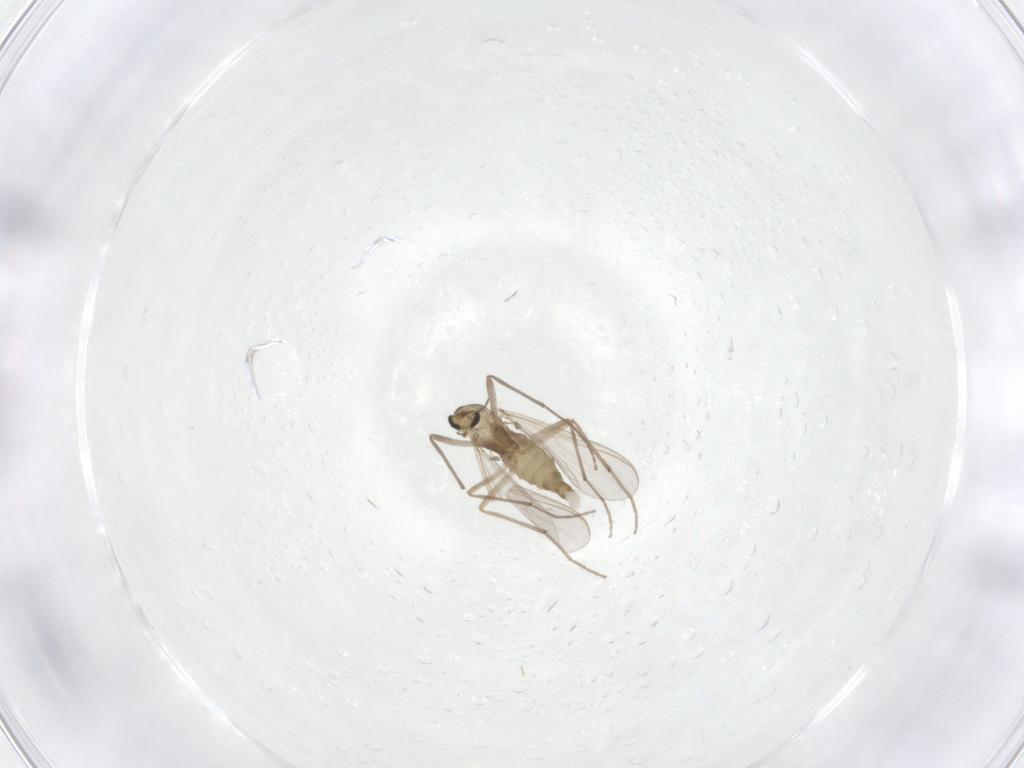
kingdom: Animalia
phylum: Arthropoda
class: Insecta
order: Diptera
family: Chironomidae
